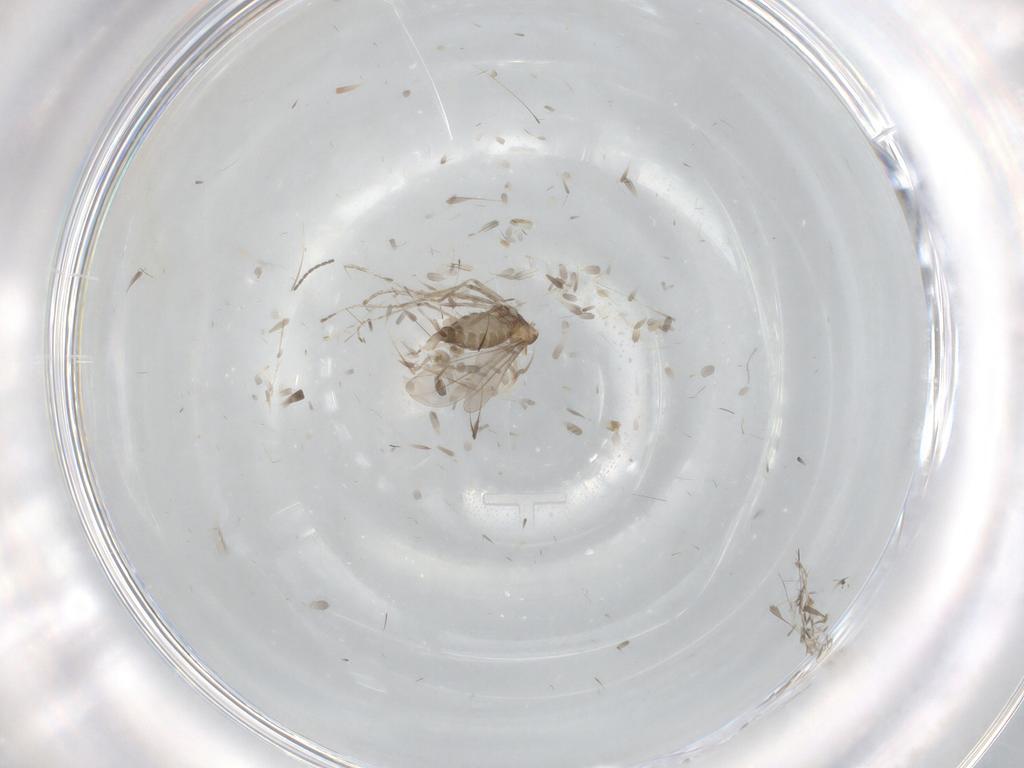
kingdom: Animalia
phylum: Arthropoda
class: Insecta
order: Diptera
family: Cecidomyiidae
